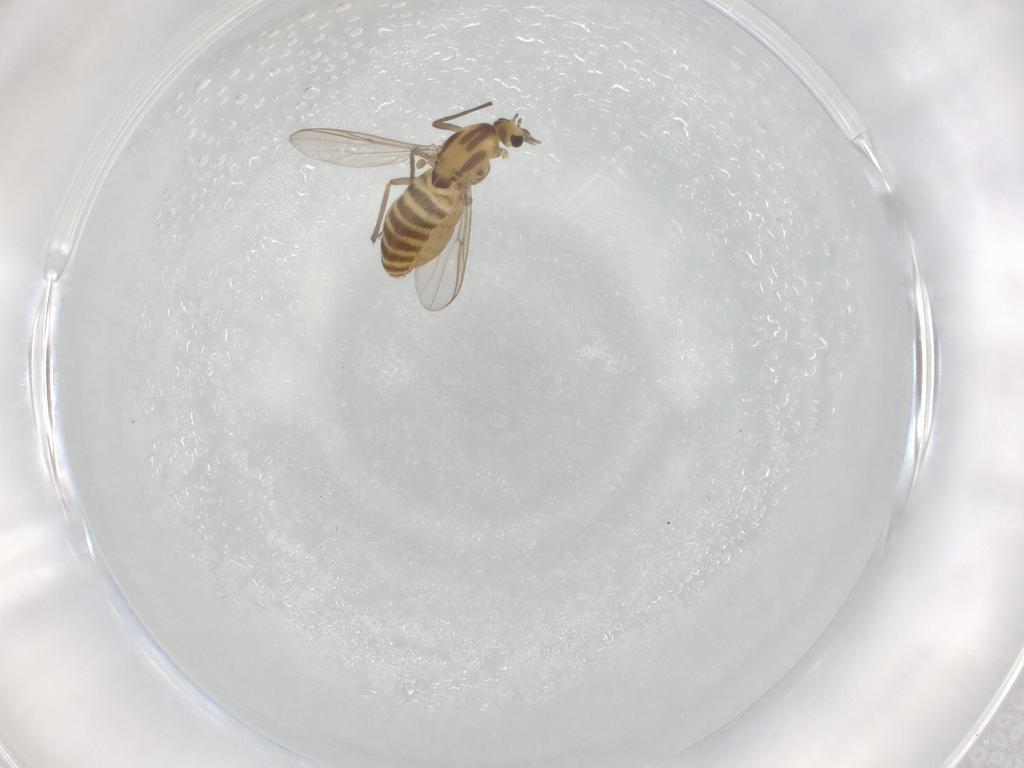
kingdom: Animalia
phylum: Arthropoda
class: Insecta
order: Diptera
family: Chironomidae
